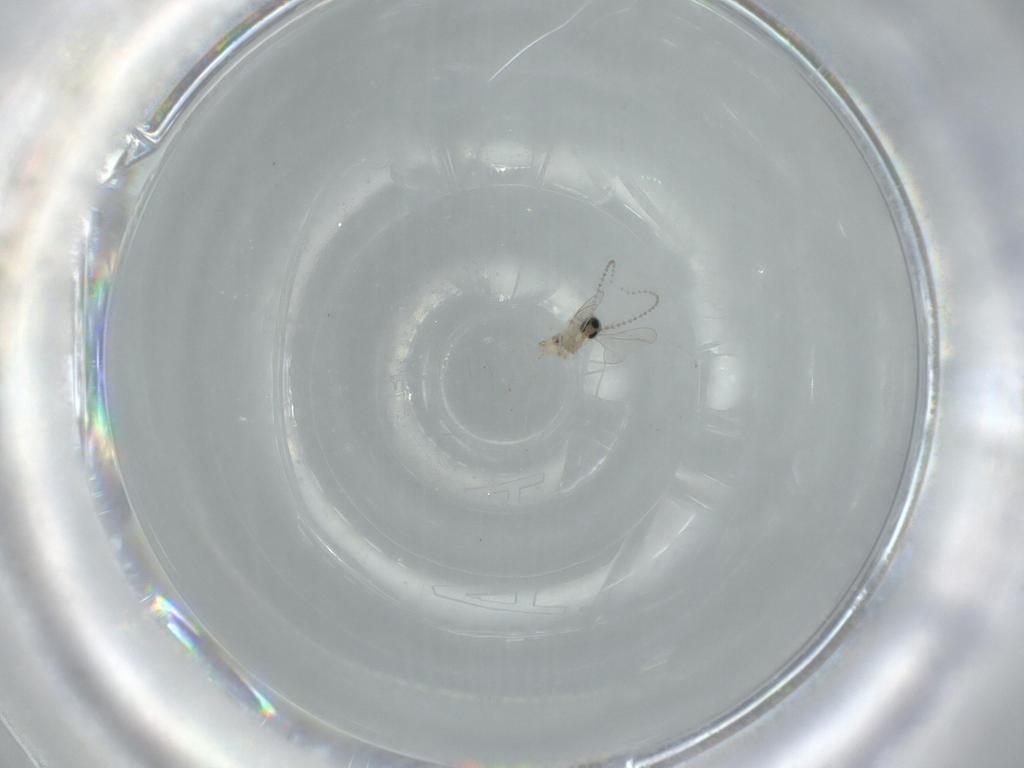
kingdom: Animalia
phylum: Arthropoda
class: Insecta
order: Diptera
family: Cecidomyiidae
